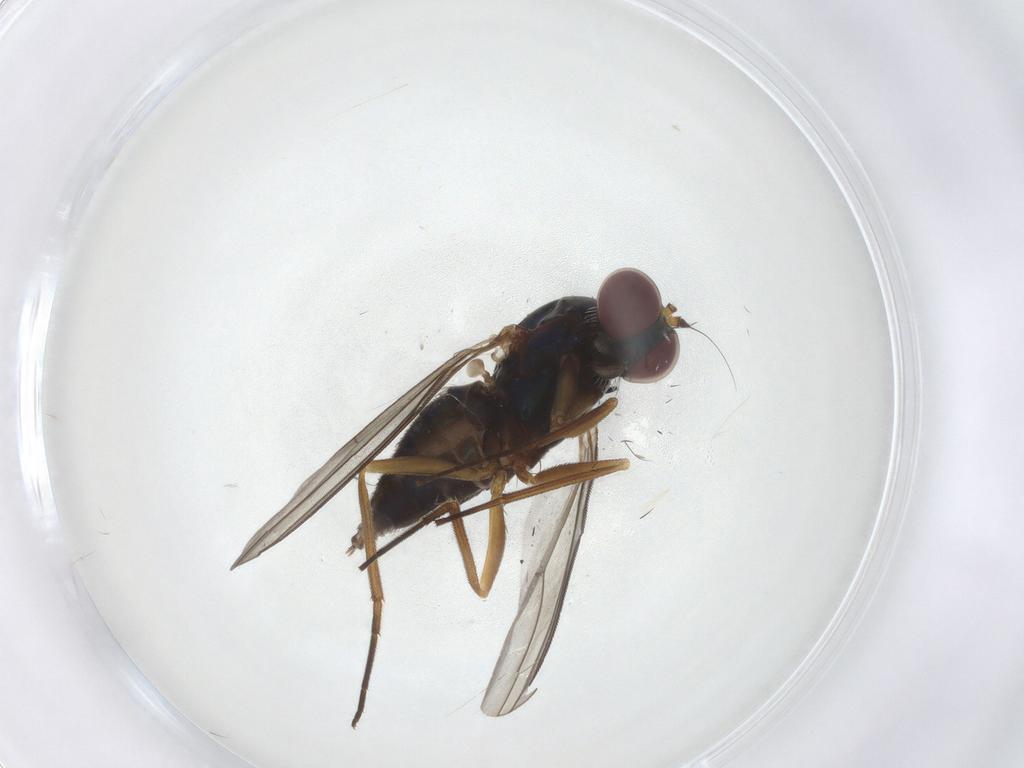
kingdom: Animalia
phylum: Arthropoda
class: Insecta
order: Diptera
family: Dolichopodidae
